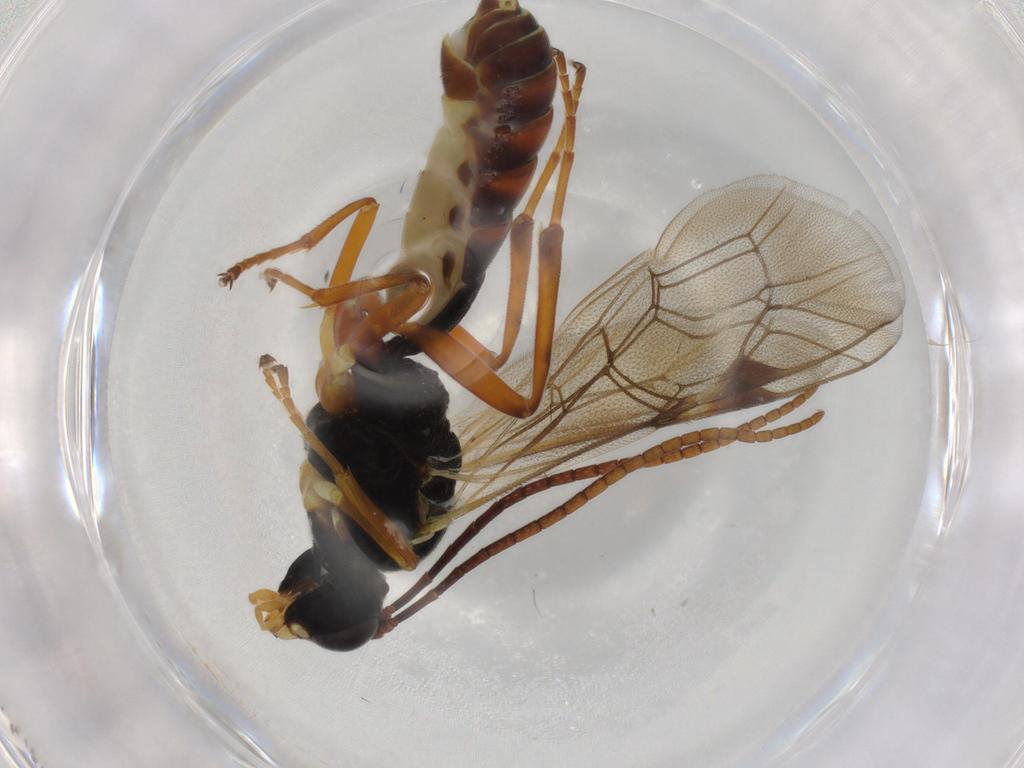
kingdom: Animalia
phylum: Arthropoda
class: Insecta
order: Hymenoptera
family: Ichneumonidae
